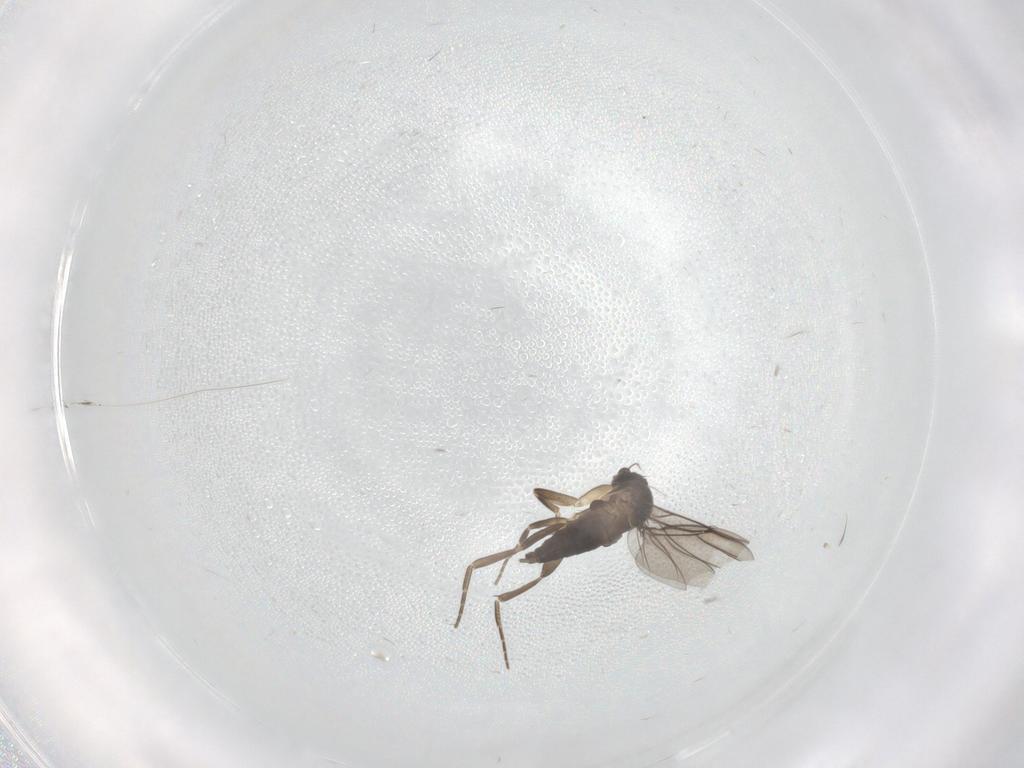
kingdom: Animalia
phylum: Arthropoda
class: Insecta
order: Diptera
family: Phoridae
